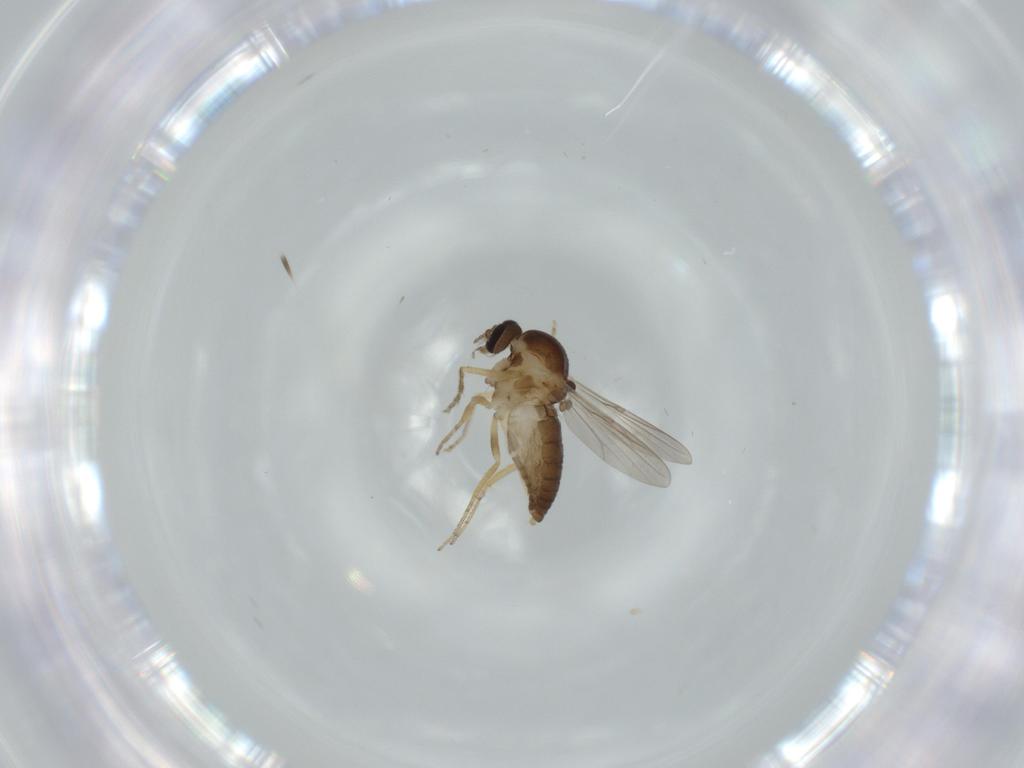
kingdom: Animalia
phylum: Arthropoda
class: Insecta
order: Diptera
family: Ceratopogonidae
